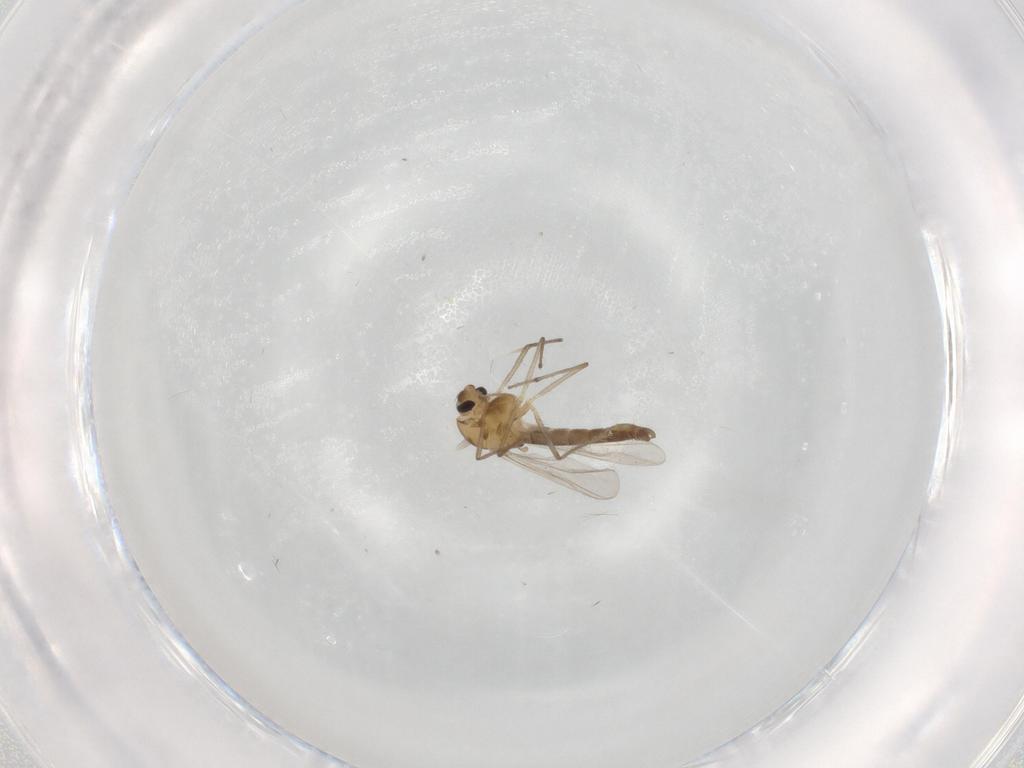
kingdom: Animalia
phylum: Arthropoda
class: Insecta
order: Diptera
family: Chironomidae
